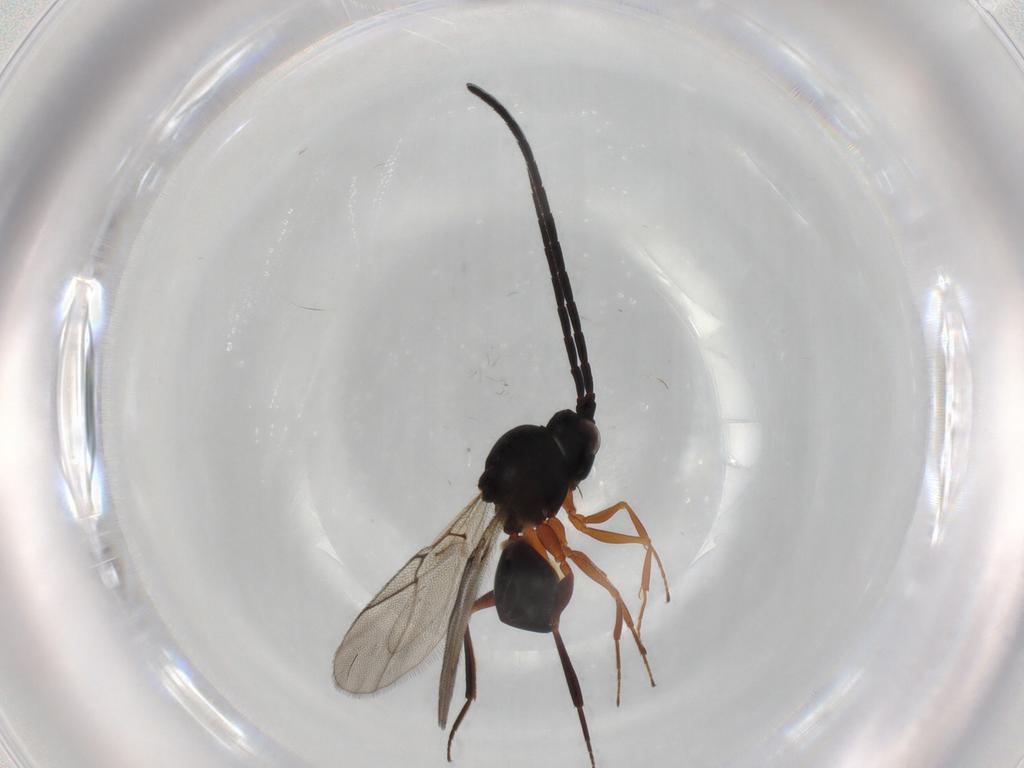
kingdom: Animalia
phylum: Arthropoda
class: Insecta
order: Hymenoptera
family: Figitidae
